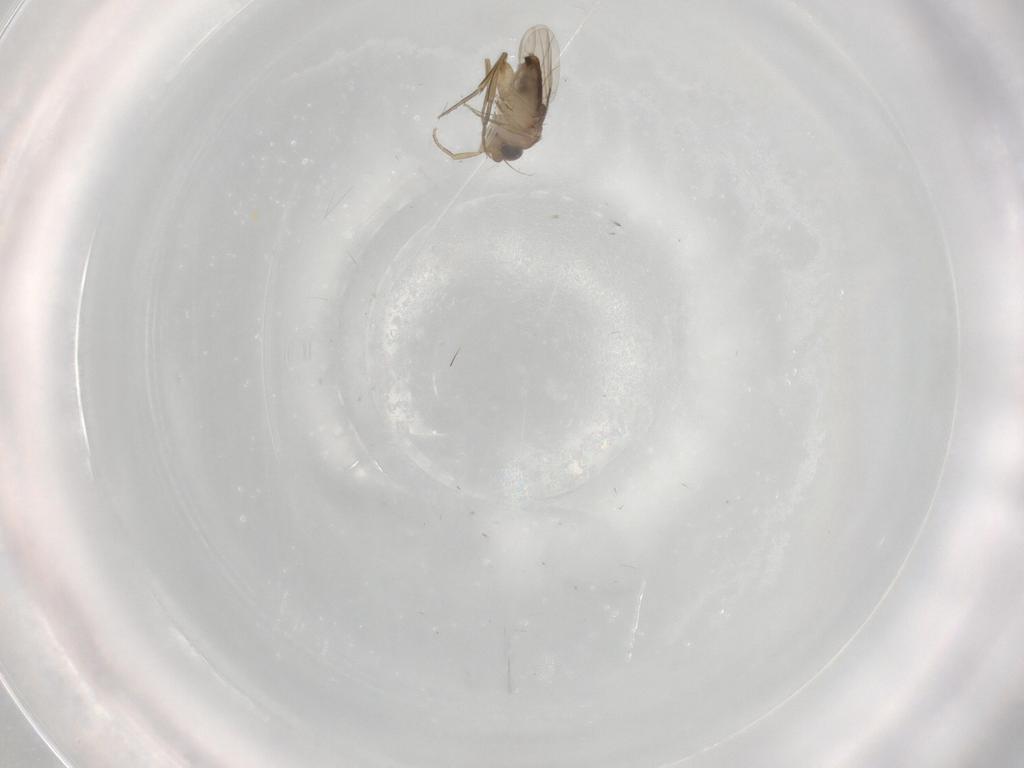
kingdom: Animalia
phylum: Arthropoda
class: Insecta
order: Diptera
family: Phoridae
